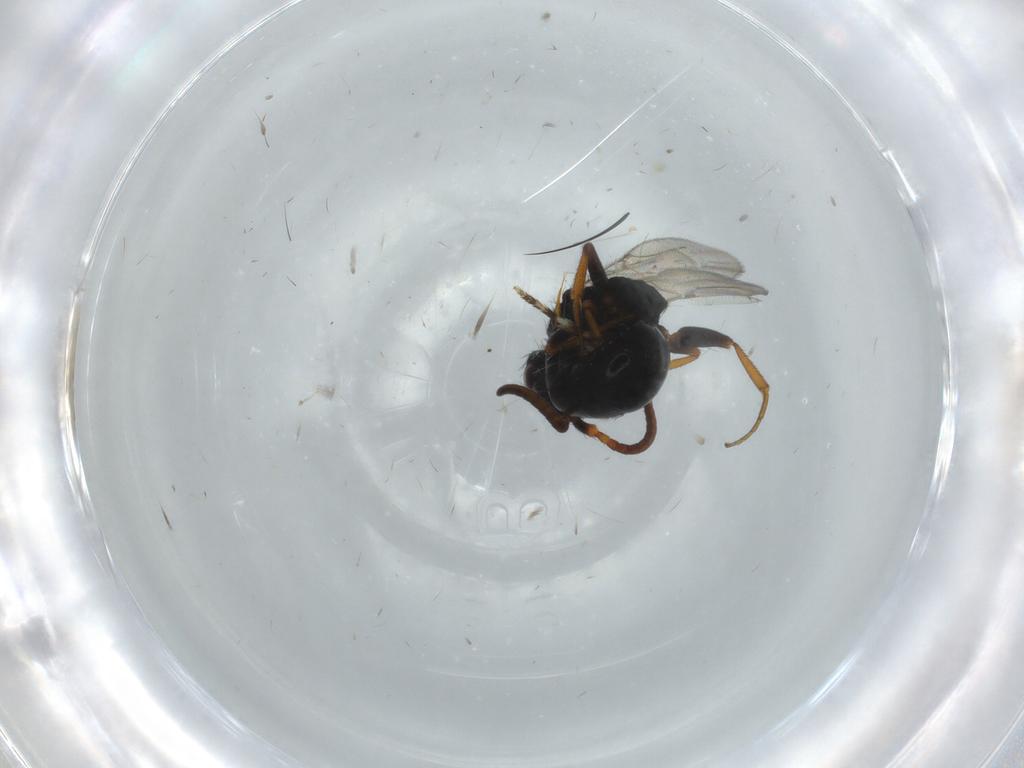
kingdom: Animalia
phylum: Arthropoda
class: Insecta
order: Hymenoptera
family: Bethylidae
